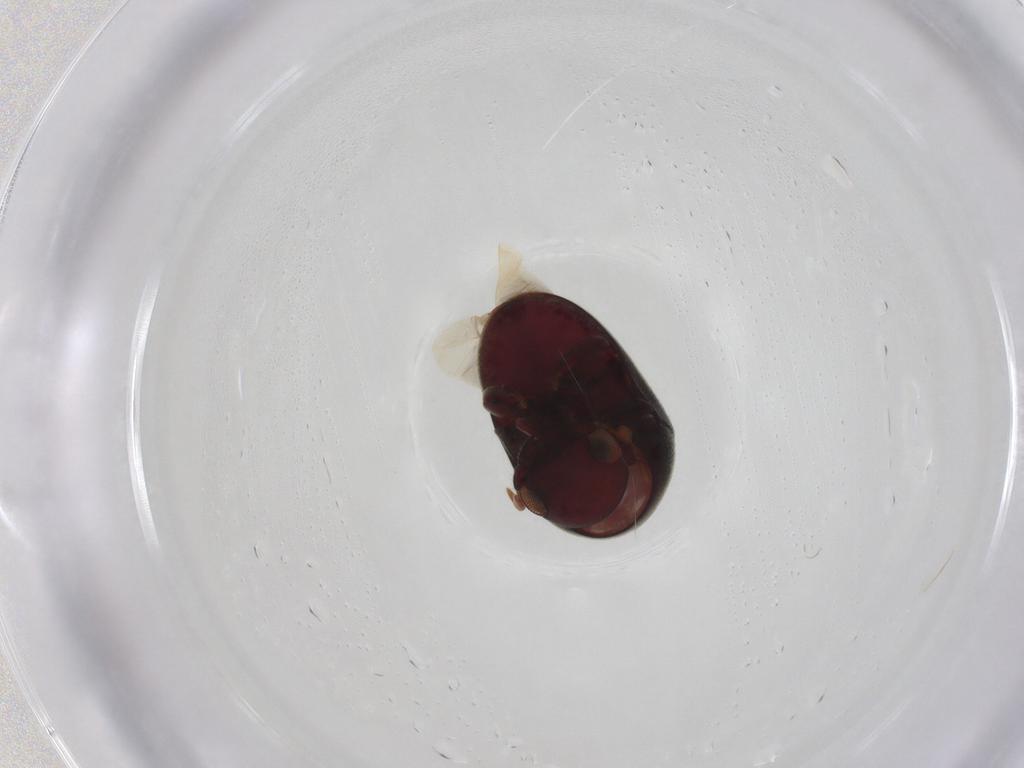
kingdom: Animalia
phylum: Arthropoda
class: Insecta
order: Coleoptera
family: Ptinidae
